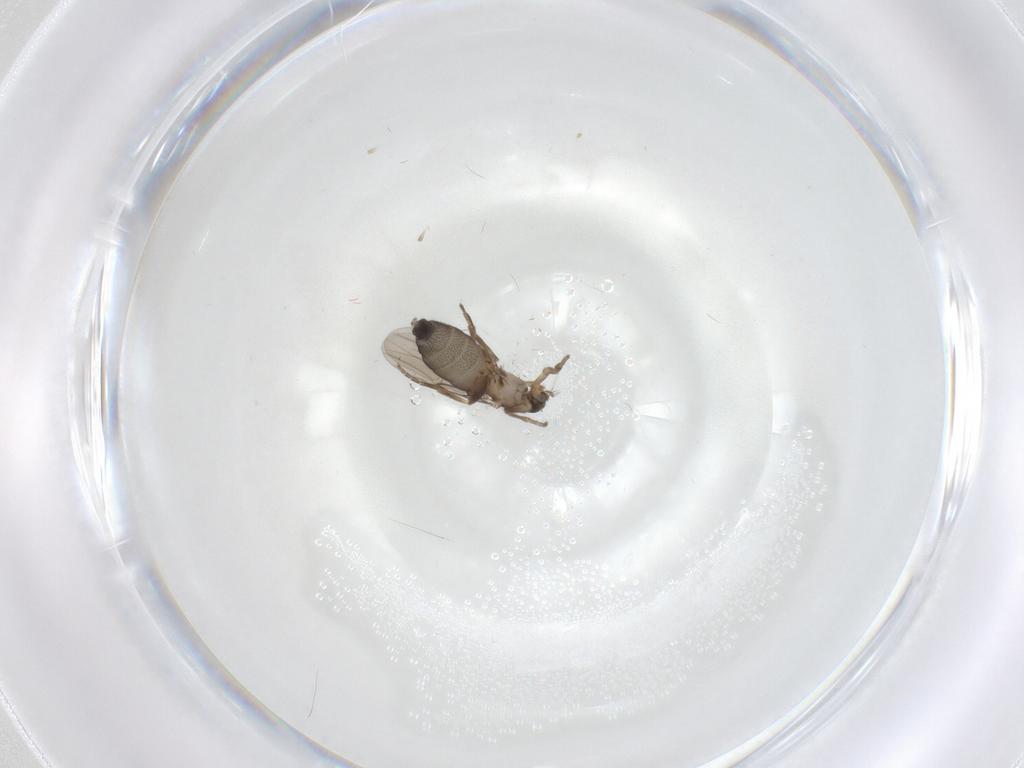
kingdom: Animalia
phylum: Arthropoda
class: Insecta
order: Diptera
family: Phoridae
